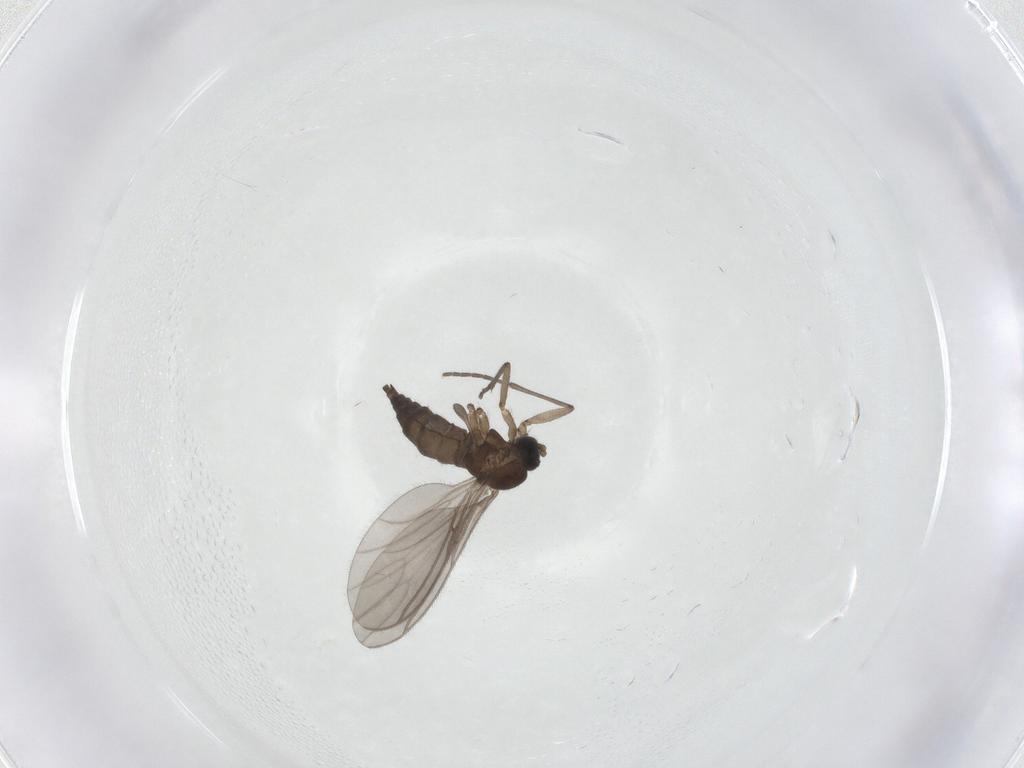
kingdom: Animalia
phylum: Arthropoda
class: Insecta
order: Diptera
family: Sciaridae
